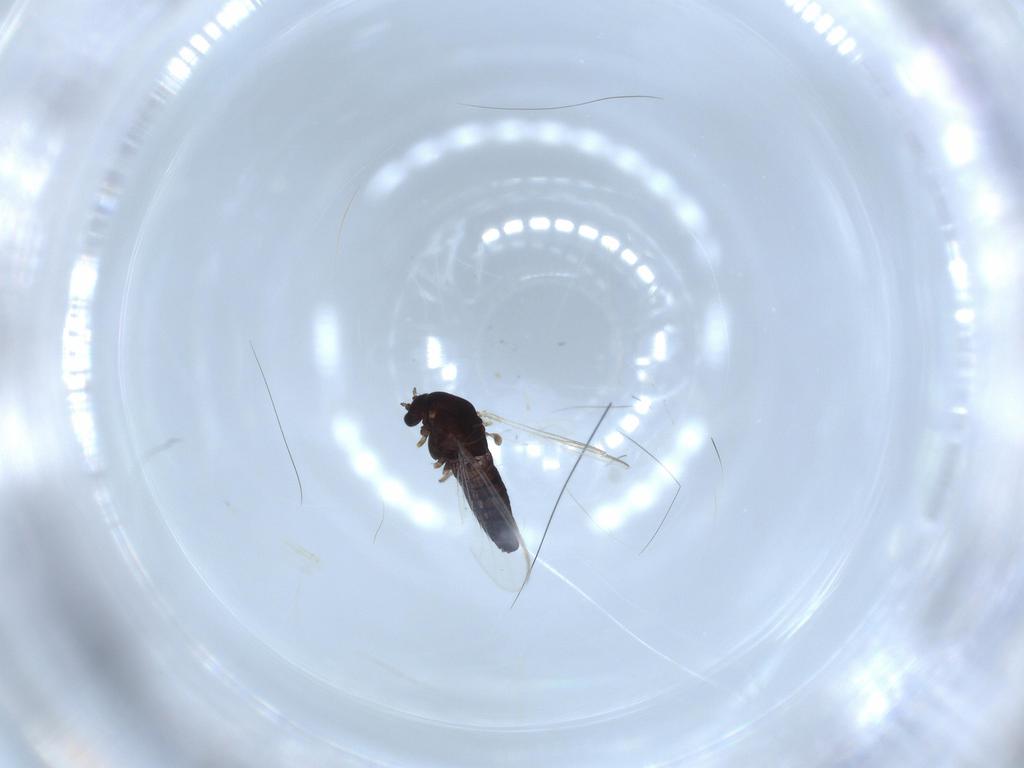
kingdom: Animalia
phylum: Arthropoda
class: Insecta
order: Diptera
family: Chironomidae
